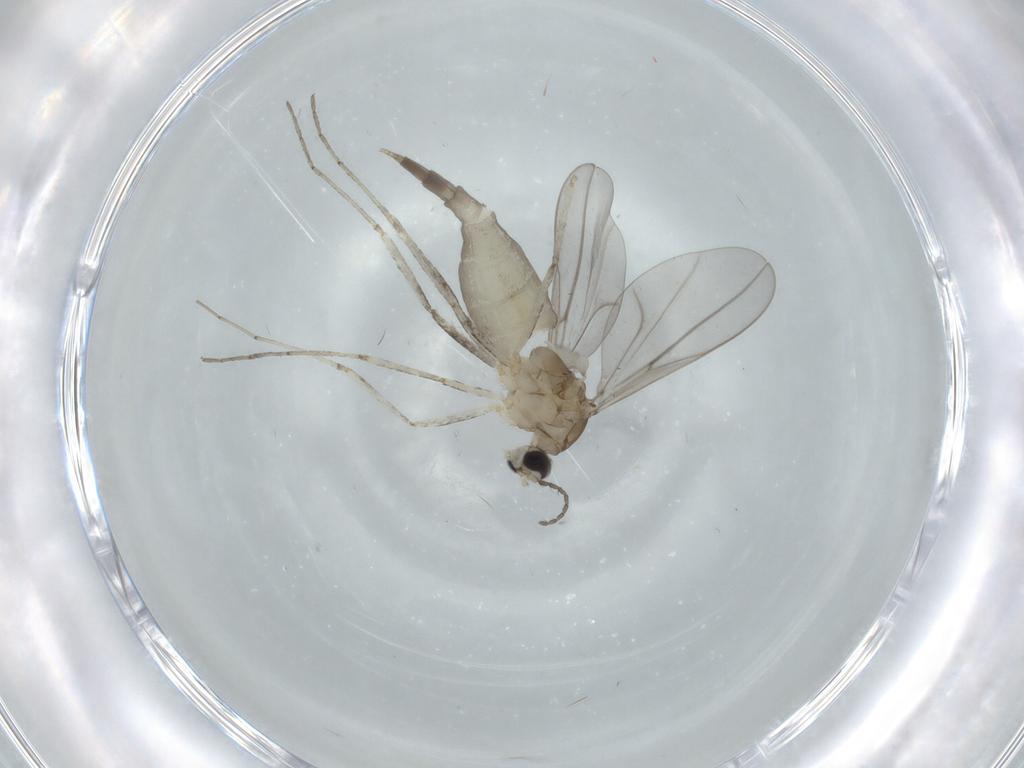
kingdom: Animalia
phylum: Arthropoda
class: Insecta
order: Diptera
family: Cecidomyiidae
